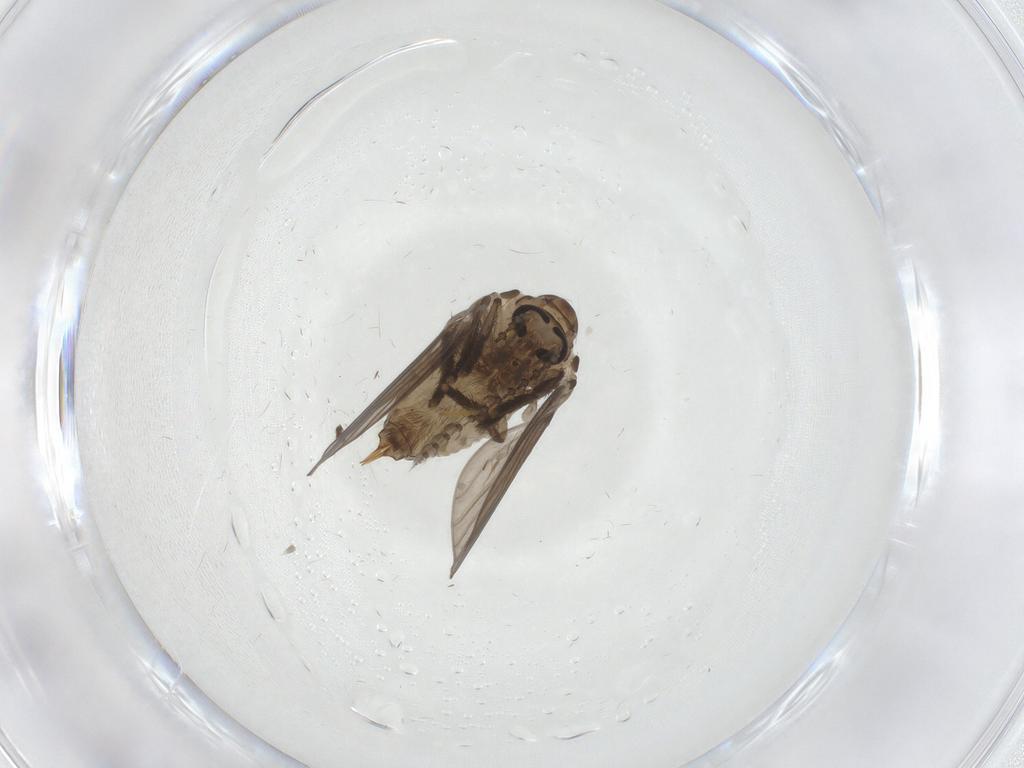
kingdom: Animalia
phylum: Arthropoda
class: Insecta
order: Diptera
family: Psychodidae
